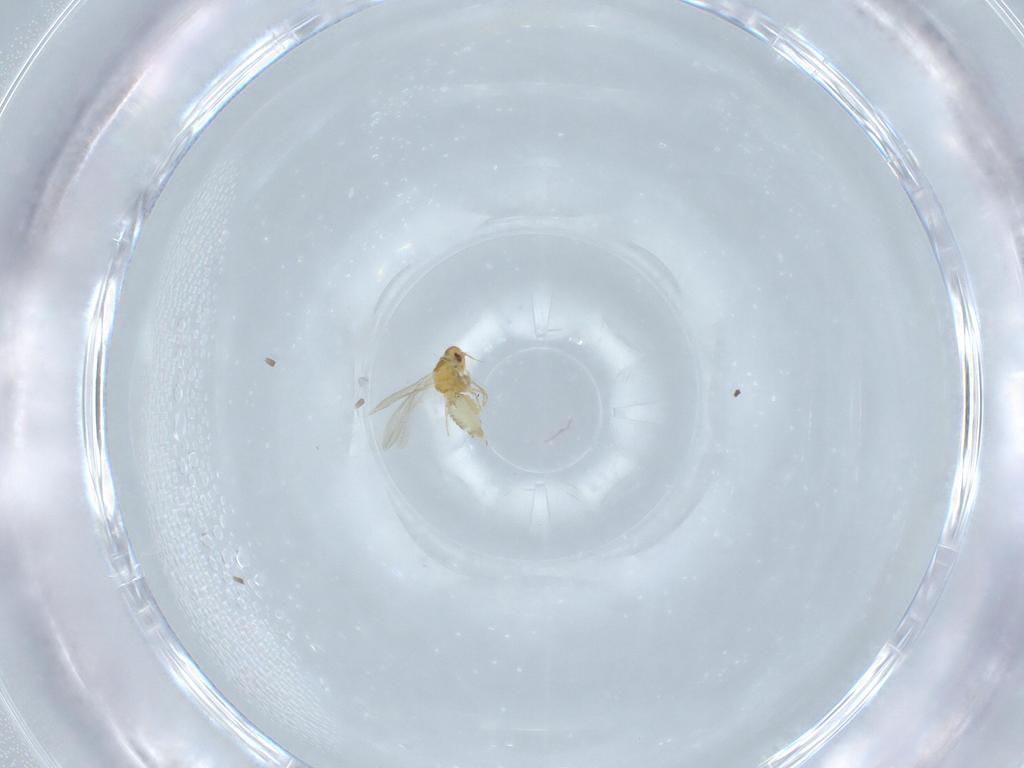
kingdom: Animalia
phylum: Arthropoda
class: Insecta
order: Hemiptera
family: Aleyrodidae
